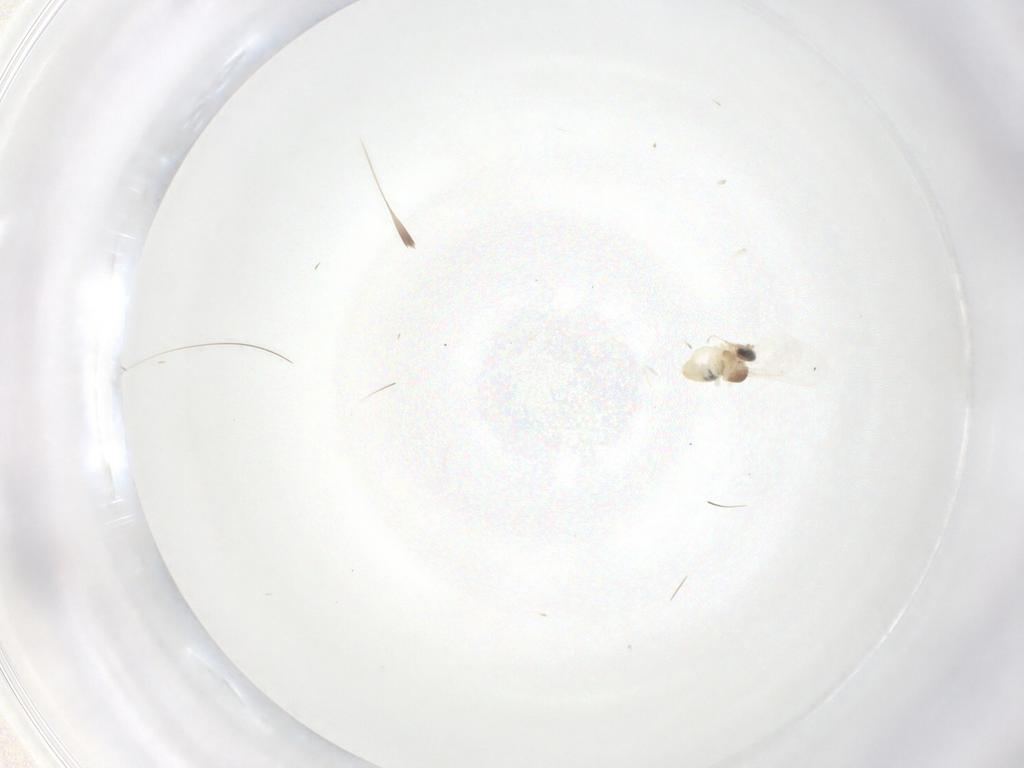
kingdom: Animalia
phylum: Arthropoda
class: Insecta
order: Diptera
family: Cecidomyiidae
